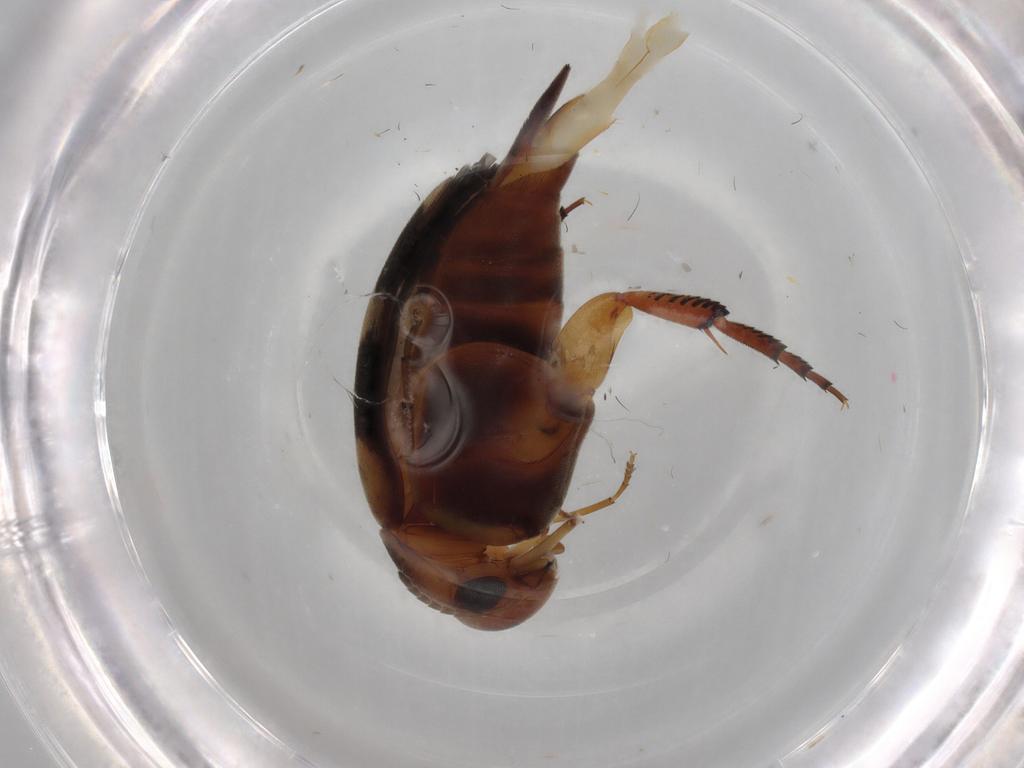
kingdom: Animalia
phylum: Arthropoda
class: Insecta
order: Coleoptera
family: Mordellidae
